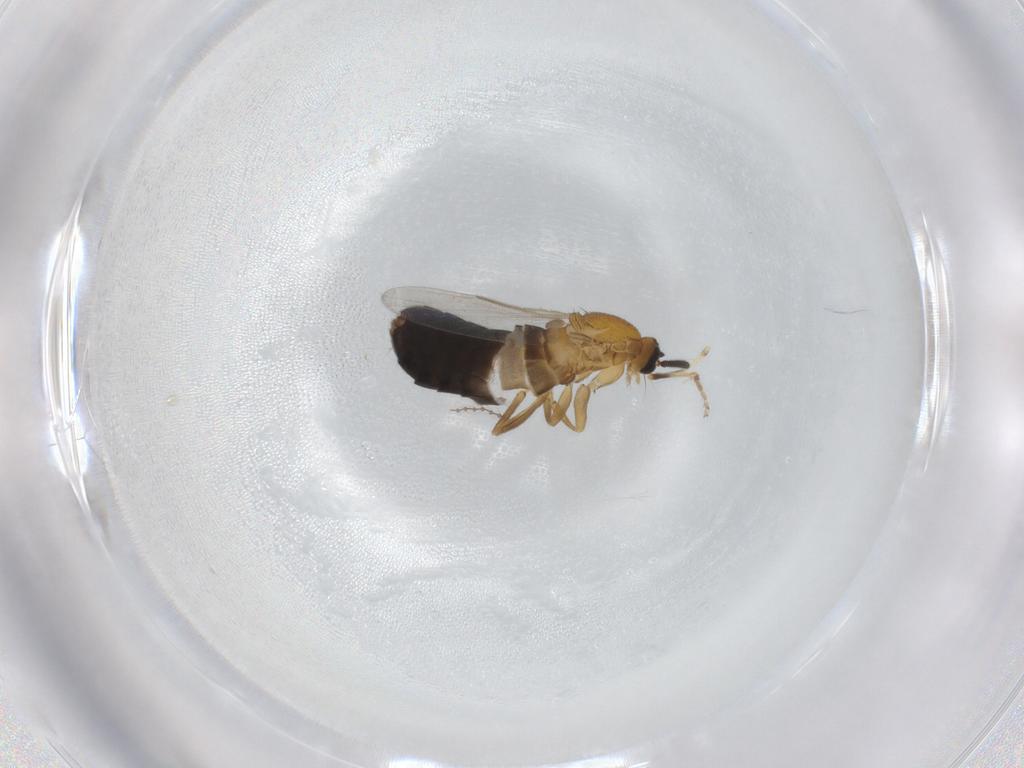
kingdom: Animalia
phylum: Arthropoda
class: Insecta
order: Diptera
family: Scatopsidae
